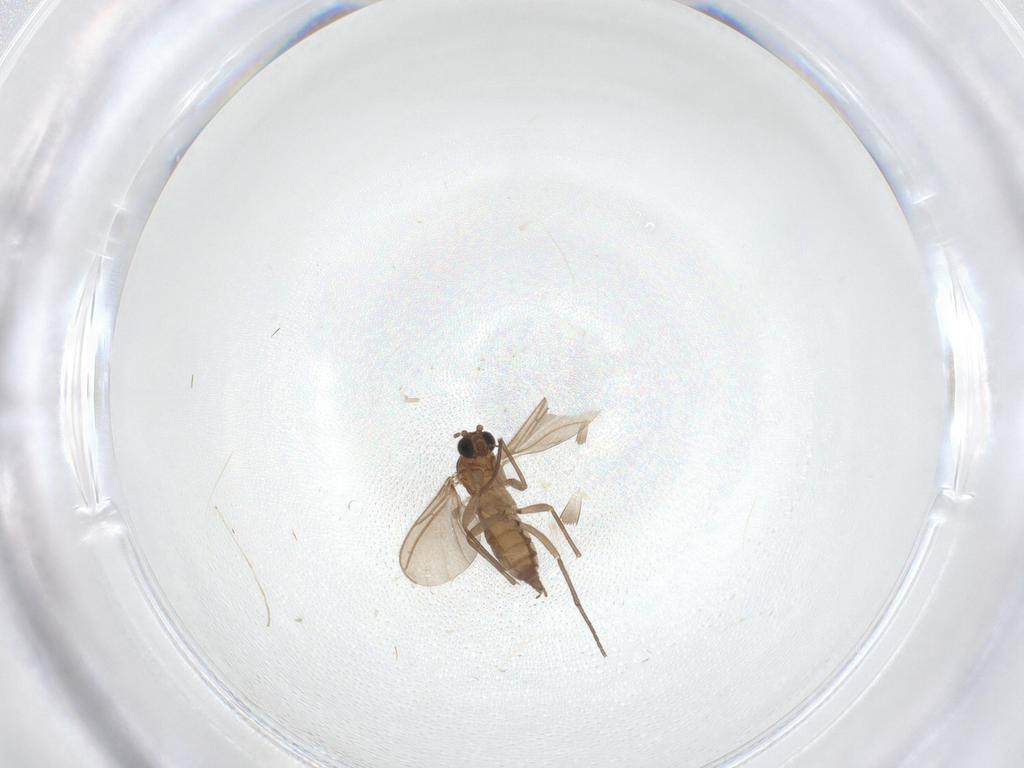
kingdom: Animalia
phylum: Arthropoda
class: Insecta
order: Diptera
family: Sciaridae
